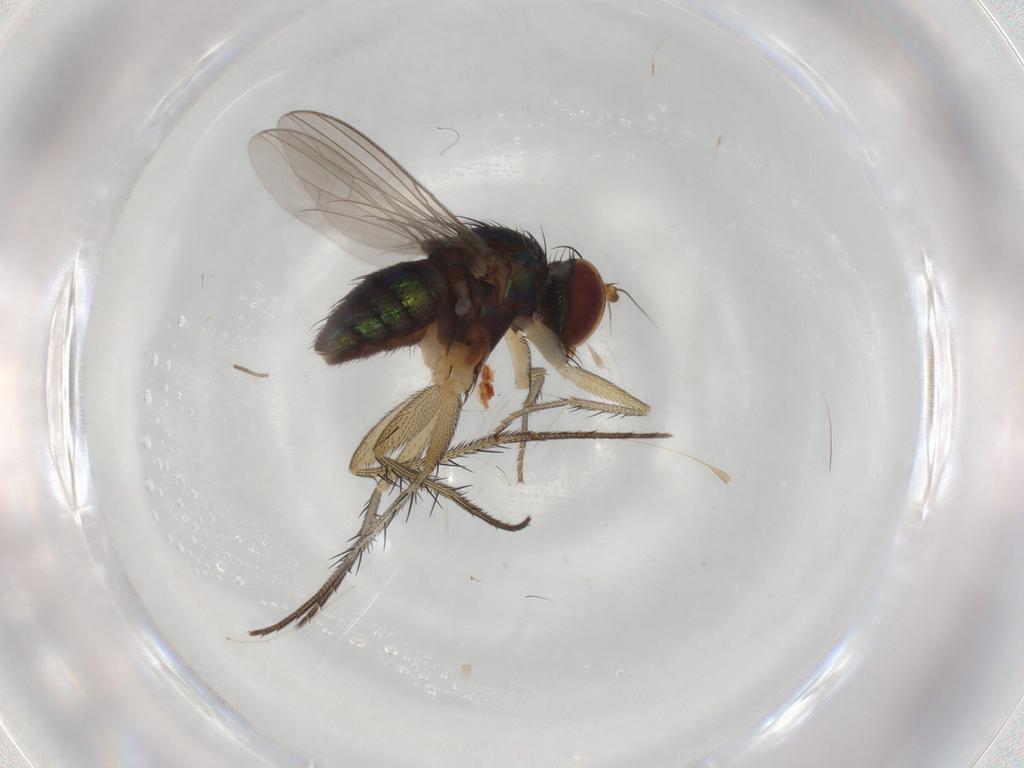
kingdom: Animalia
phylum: Arthropoda
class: Insecta
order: Diptera
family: Dolichopodidae
